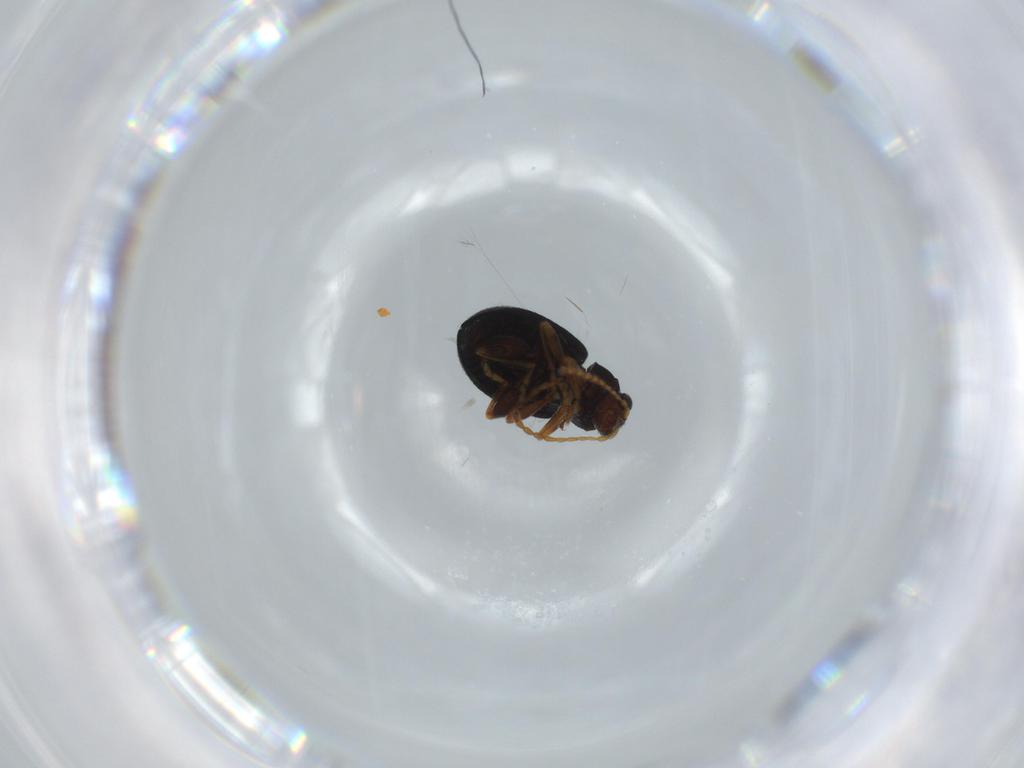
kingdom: Animalia
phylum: Arthropoda
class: Insecta
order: Coleoptera
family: Chrysomelidae
